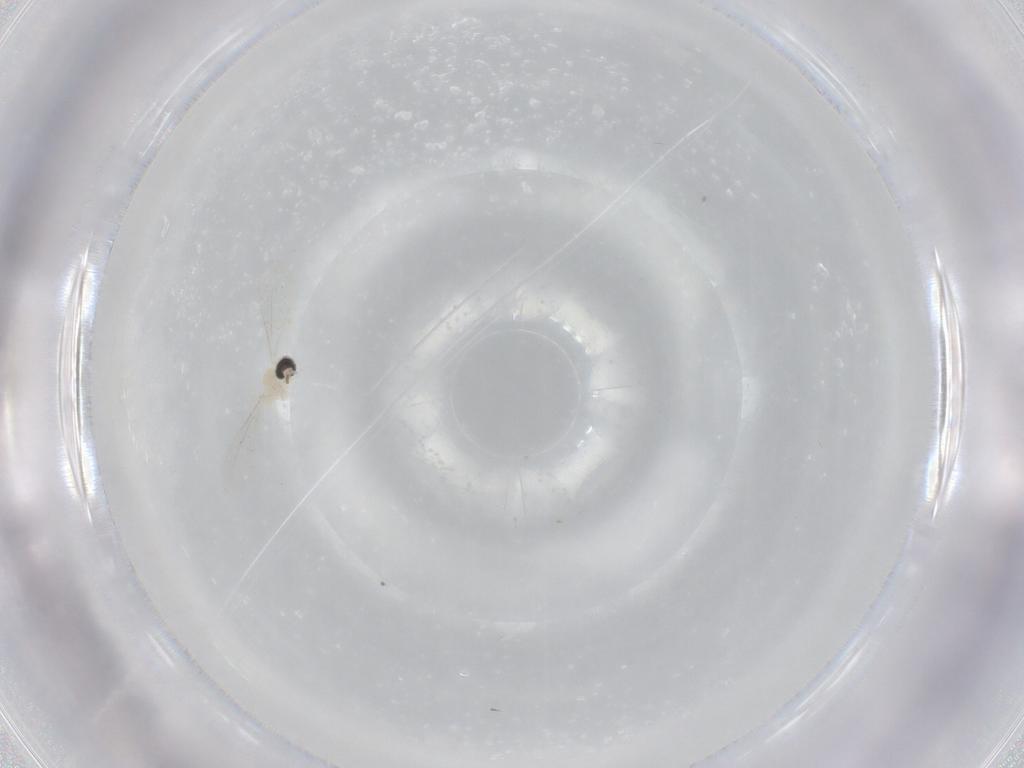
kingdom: Animalia
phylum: Arthropoda
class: Insecta
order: Diptera
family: Cecidomyiidae
